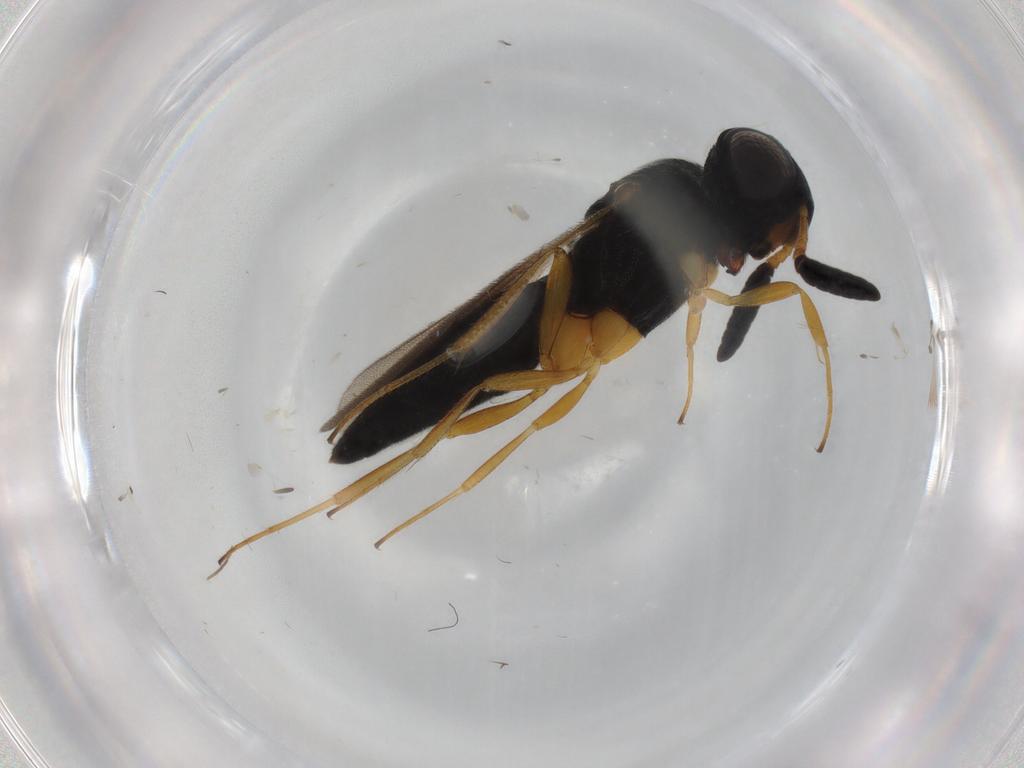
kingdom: Animalia
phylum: Arthropoda
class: Insecta
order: Hymenoptera
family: Scelionidae
